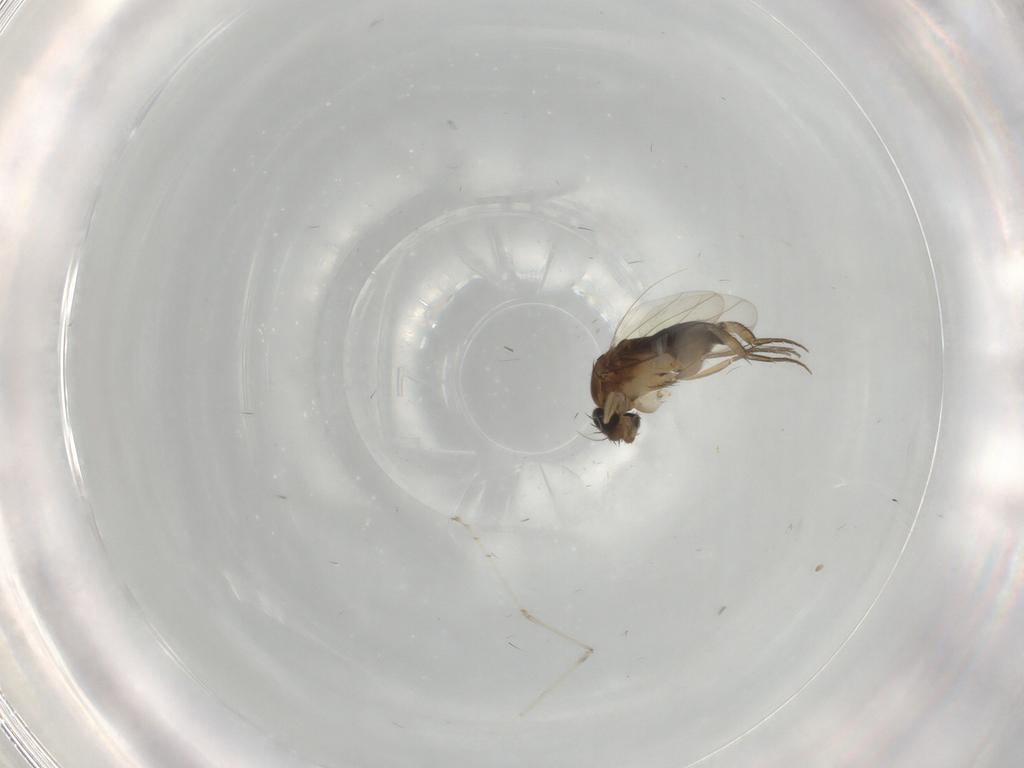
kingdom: Animalia
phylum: Arthropoda
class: Insecta
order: Diptera
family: Phoridae
